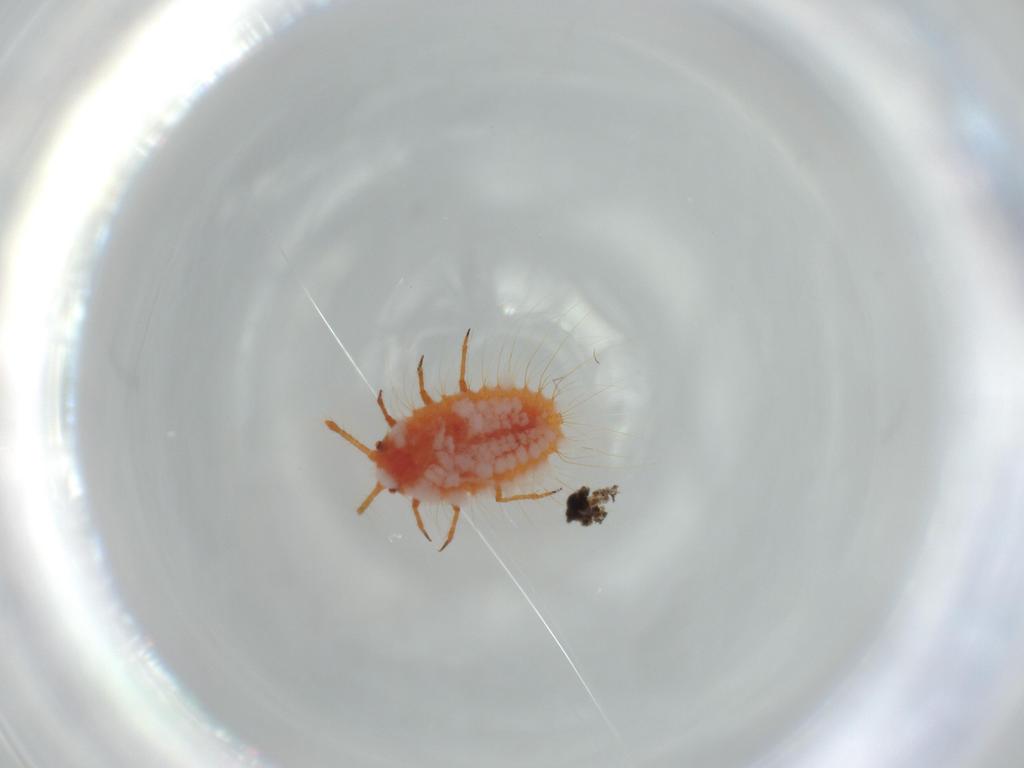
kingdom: Animalia
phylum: Arthropoda
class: Insecta
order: Hemiptera
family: Coccoidea_incertae_sedis
